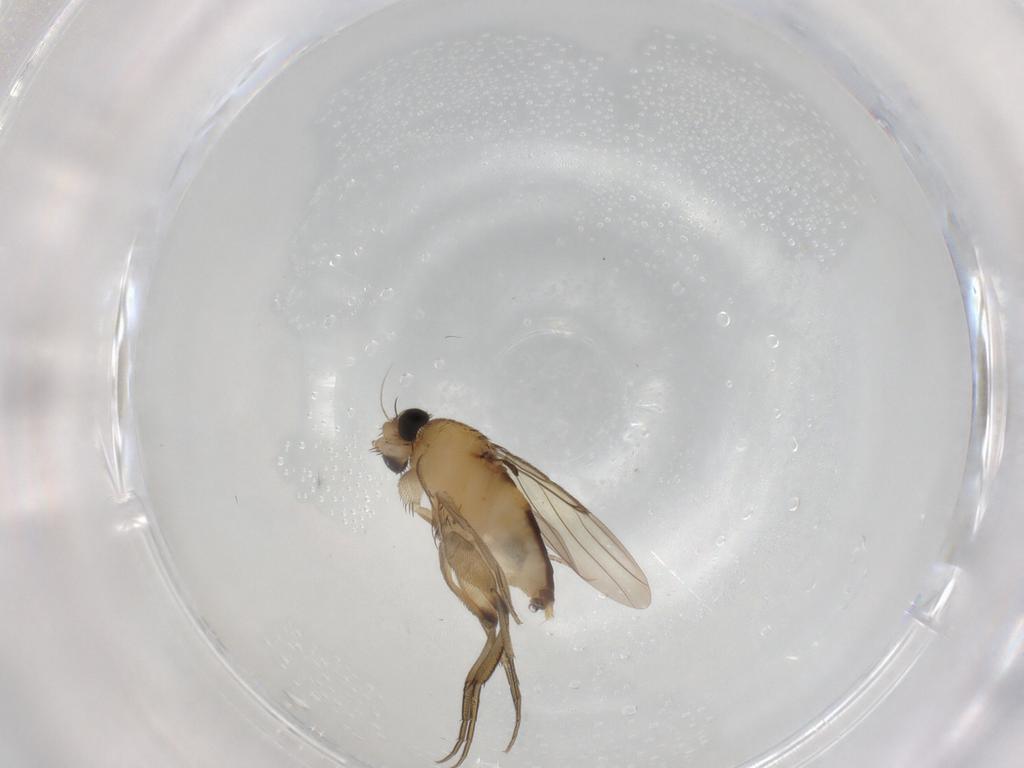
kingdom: Animalia
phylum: Arthropoda
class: Insecta
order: Diptera
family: Phoridae
